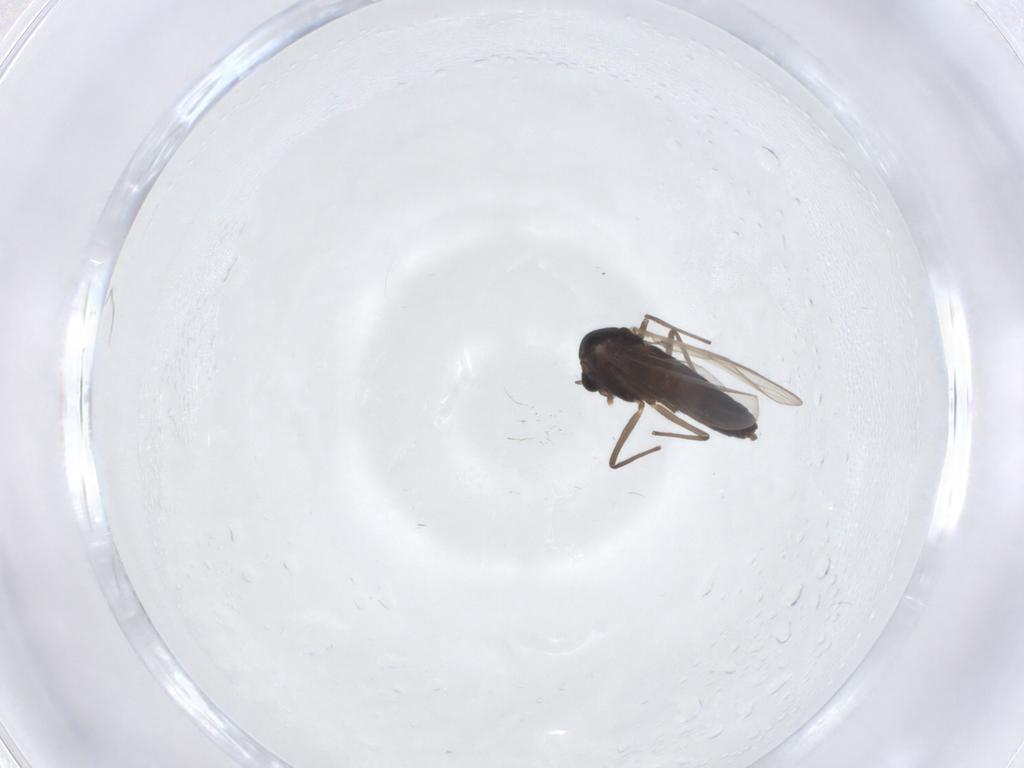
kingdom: Animalia
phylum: Arthropoda
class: Insecta
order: Diptera
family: Chironomidae
